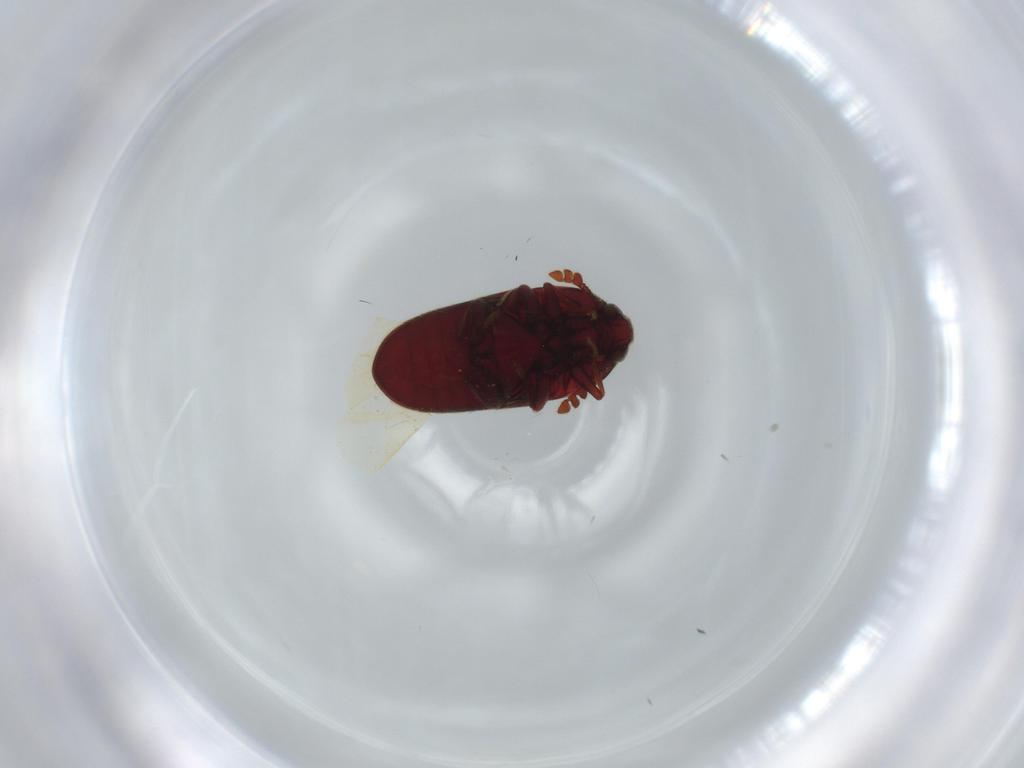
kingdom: Animalia
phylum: Arthropoda
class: Insecta
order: Coleoptera
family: Throscidae
